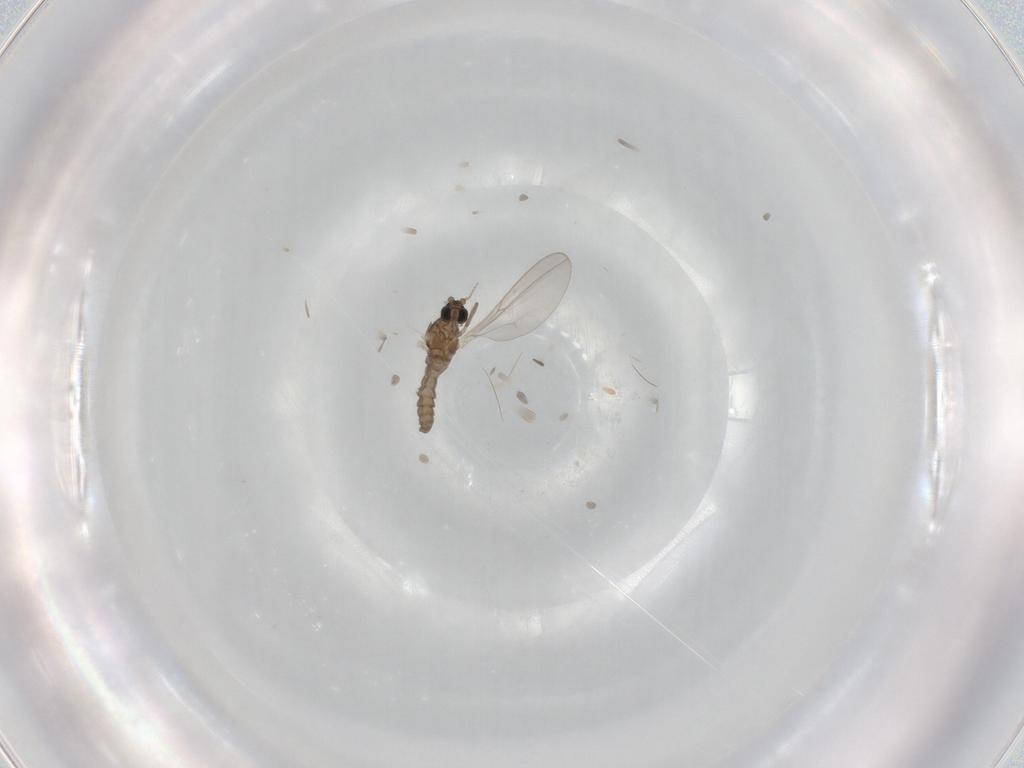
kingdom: Animalia
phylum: Arthropoda
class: Insecta
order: Diptera
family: Cecidomyiidae
